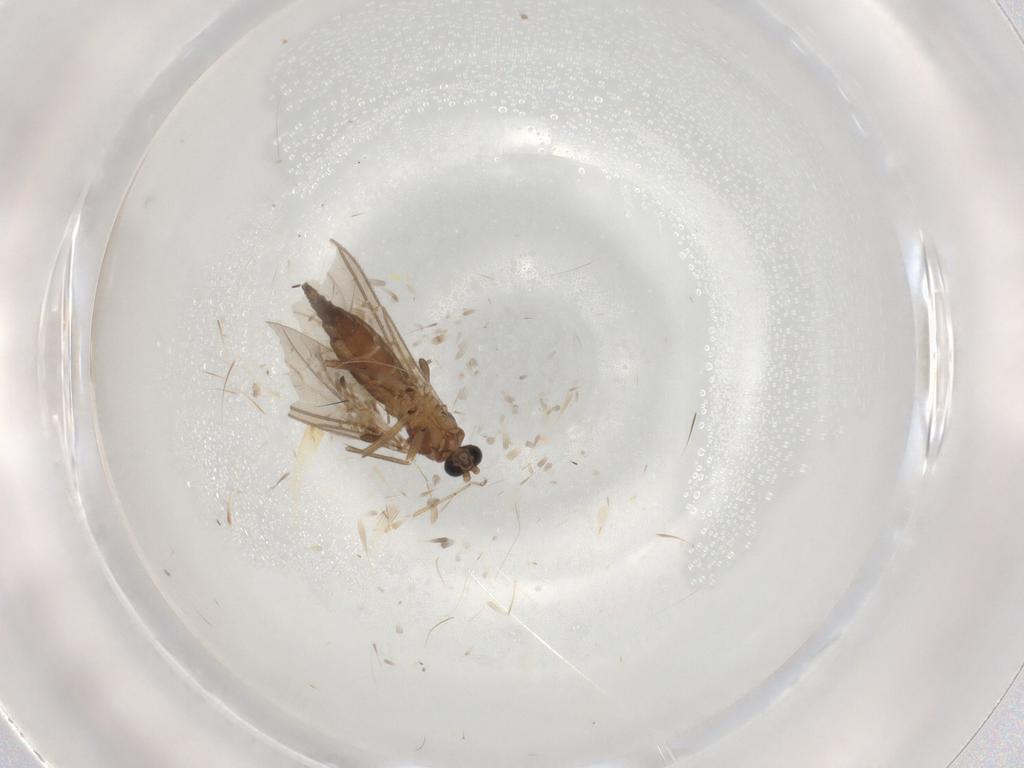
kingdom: Animalia
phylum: Arthropoda
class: Insecta
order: Diptera
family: Sciaridae
